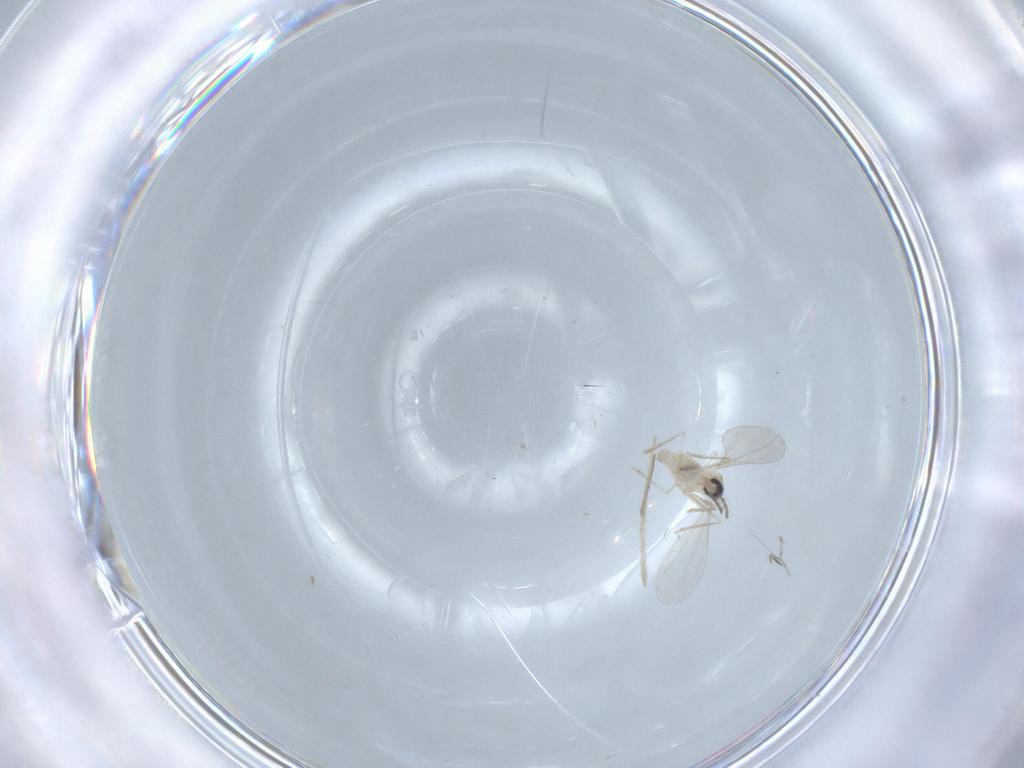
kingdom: Animalia
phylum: Arthropoda
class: Insecta
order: Diptera
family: Cecidomyiidae
